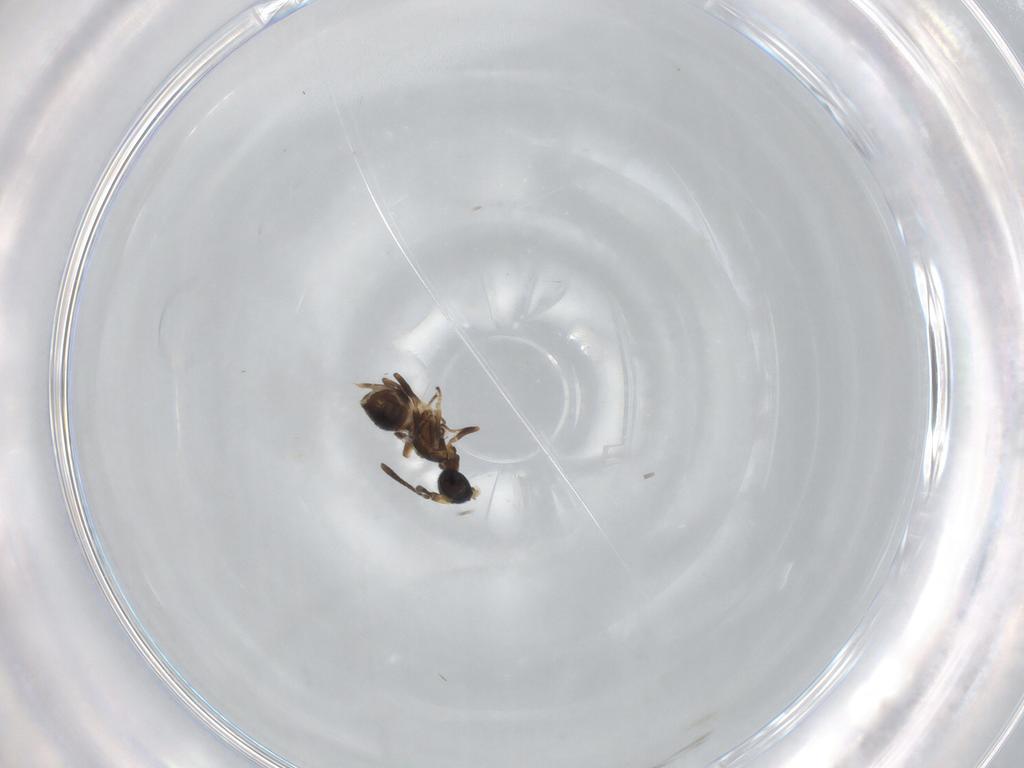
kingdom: Animalia
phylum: Arthropoda
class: Insecta
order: Hymenoptera
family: Eupelmidae
